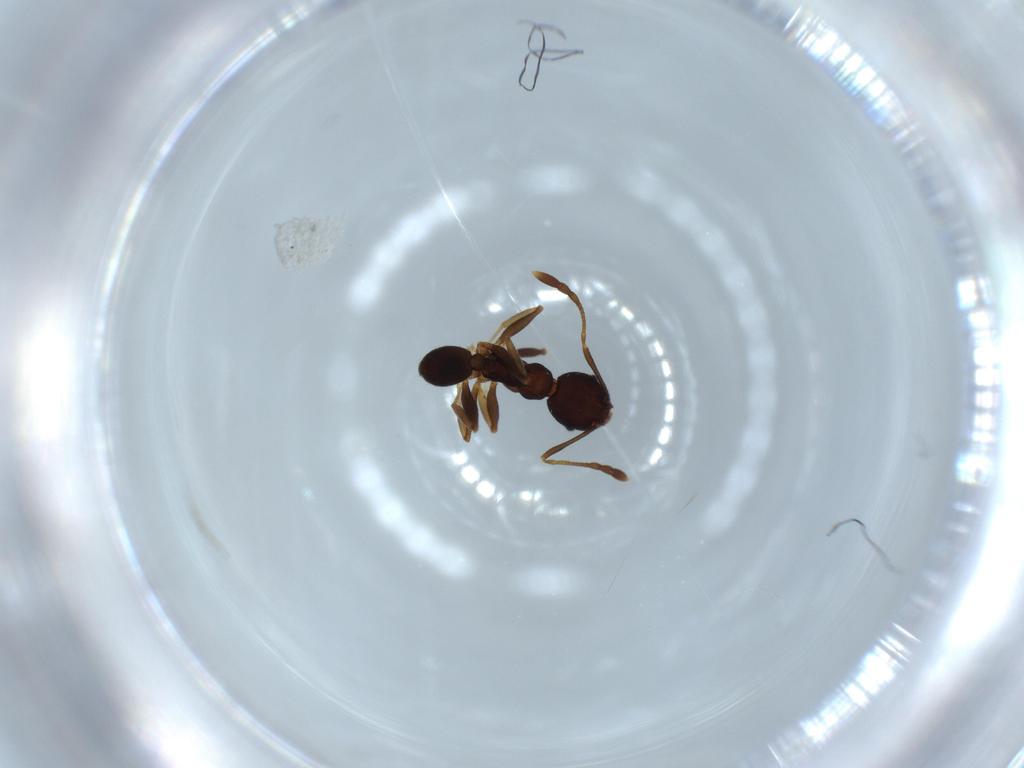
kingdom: Animalia
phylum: Arthropoda
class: Insecta
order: Hymenoptera
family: Formicidae
